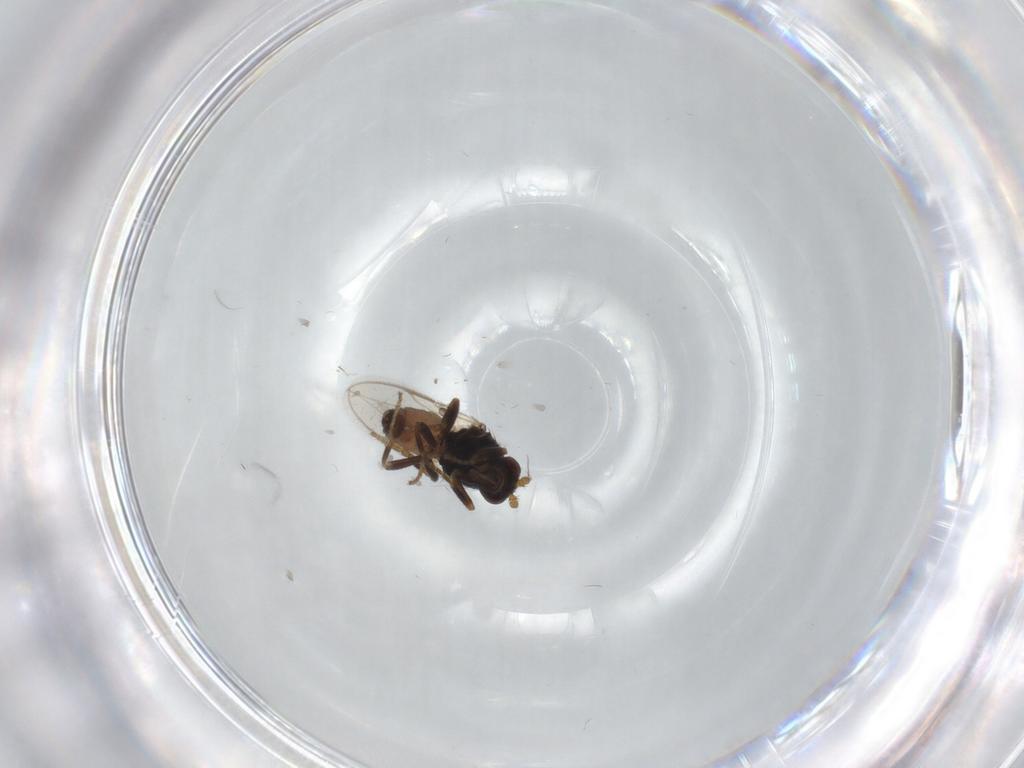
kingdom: Animalia
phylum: Arthropoda
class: Insecta
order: Diptera
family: Sphaeroceridae
